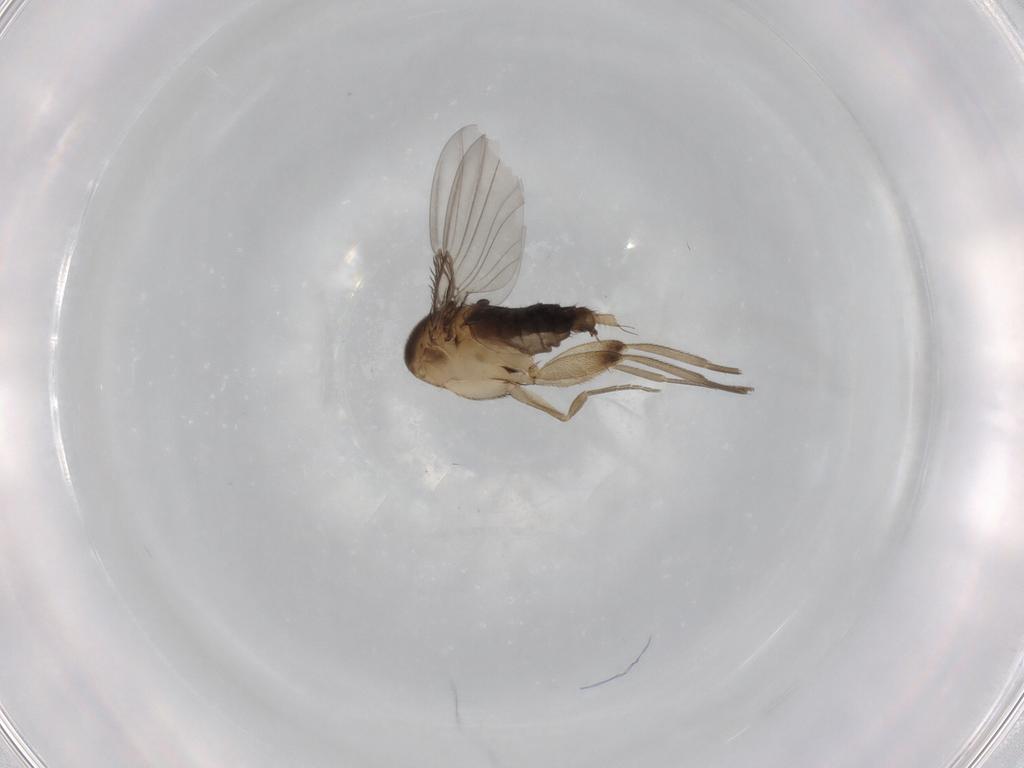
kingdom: Animalia
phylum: Arthropoda
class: Insecta
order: Diptera
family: Phoridae
